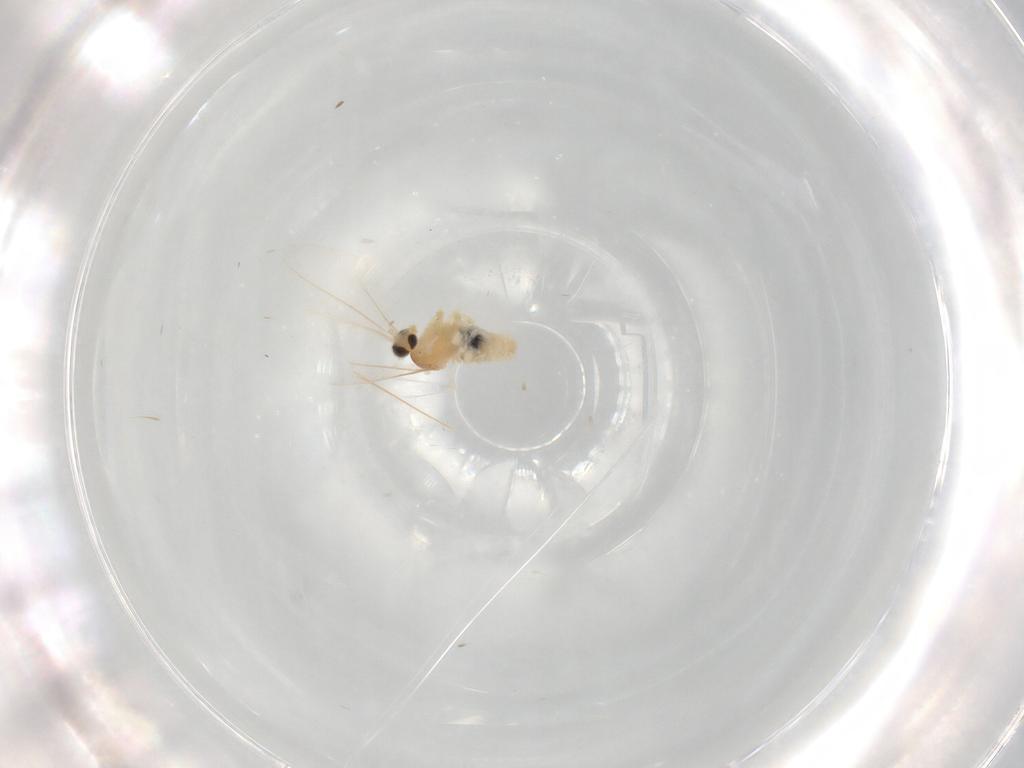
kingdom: Animalia
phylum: Arthropoda
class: Insecta
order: Diptera
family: Cecidomyiidae
